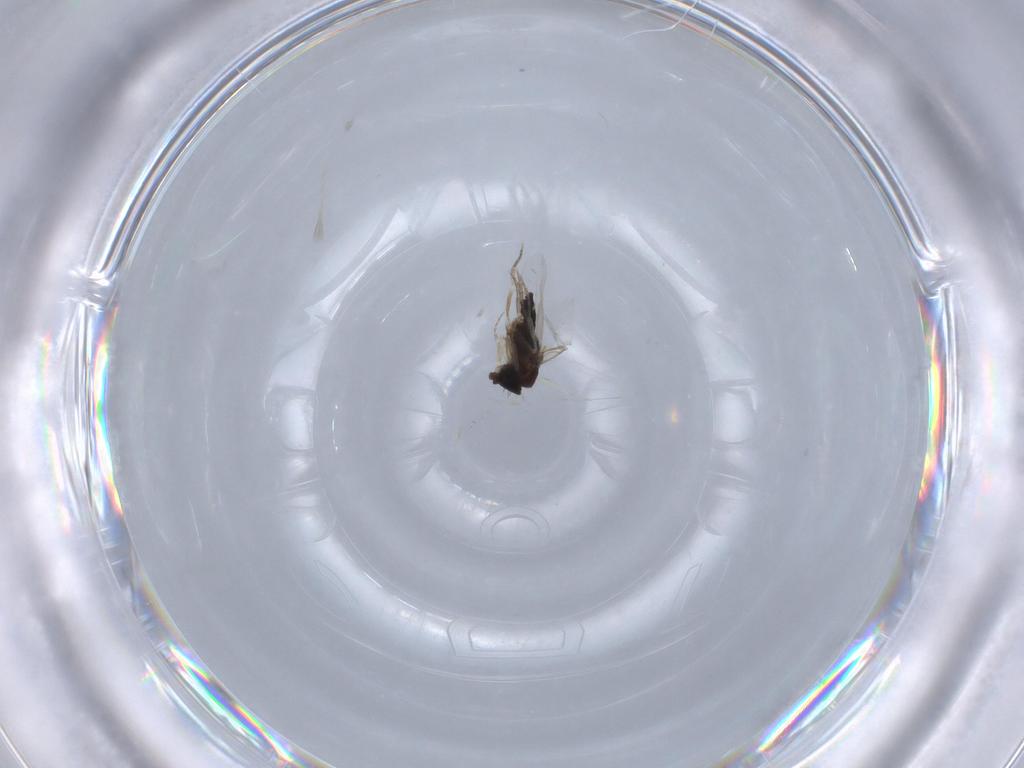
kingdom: Animalia
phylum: Arthropoda
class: Insecta
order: Diptera
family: Phoridae
